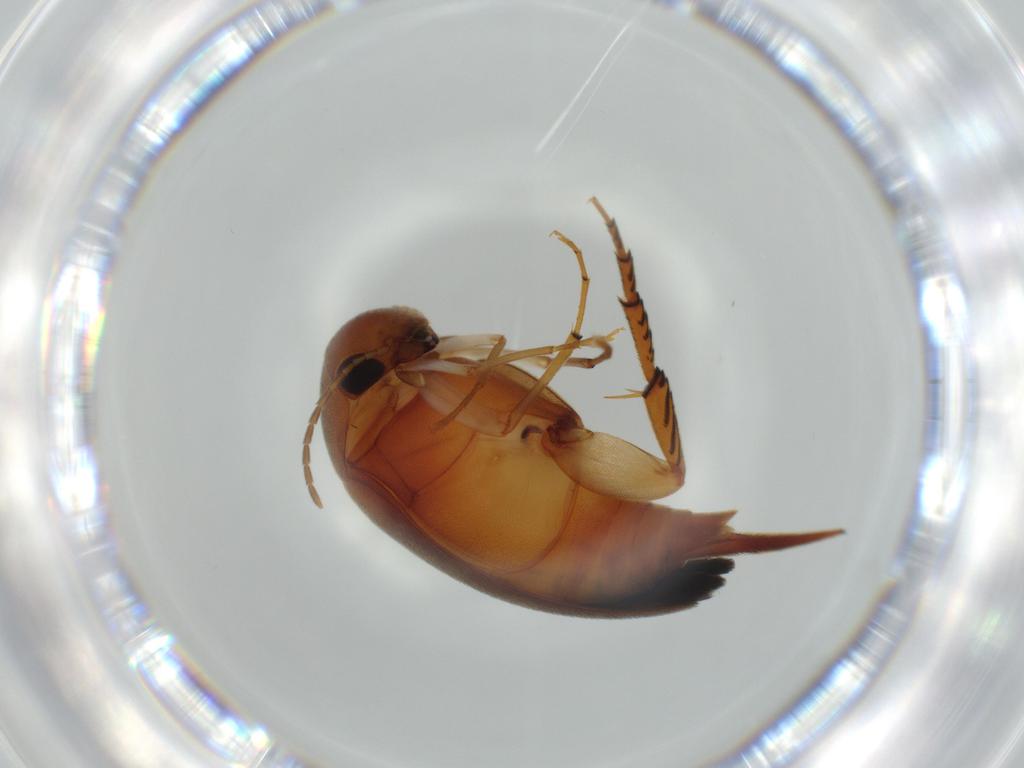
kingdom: Animalia
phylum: Arthropoda
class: Insecta
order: Coleoptera
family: Mordellidae
